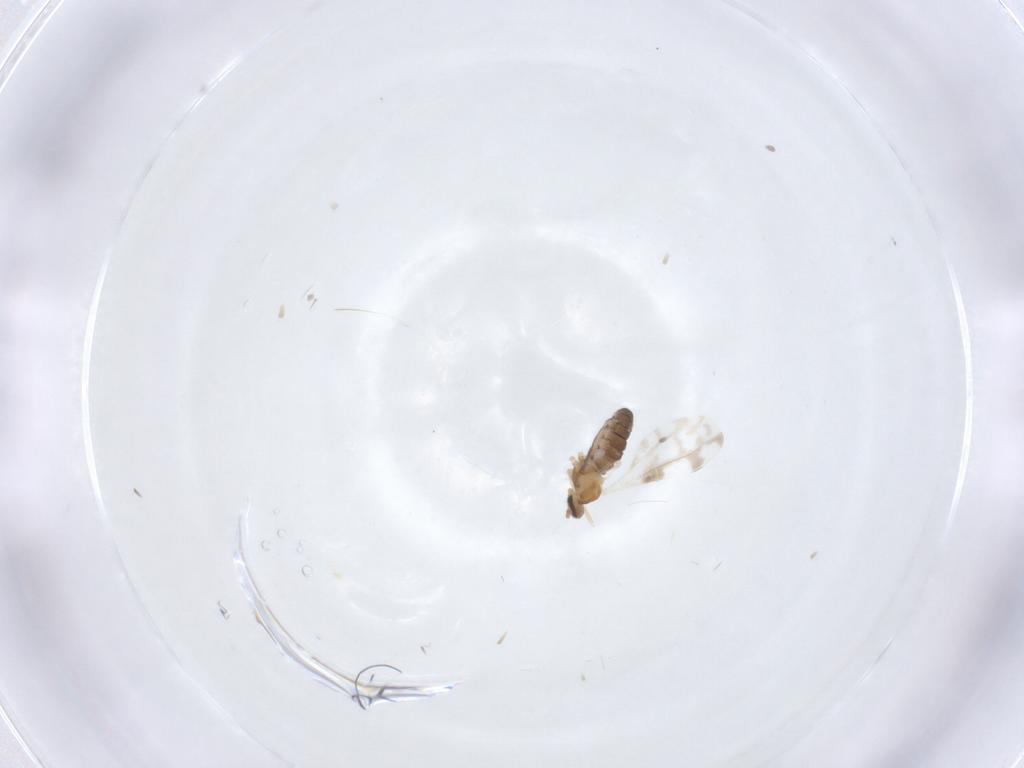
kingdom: Animalia
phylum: Arthropoda
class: Insecta
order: Diptera
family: Cecidomyiidae
